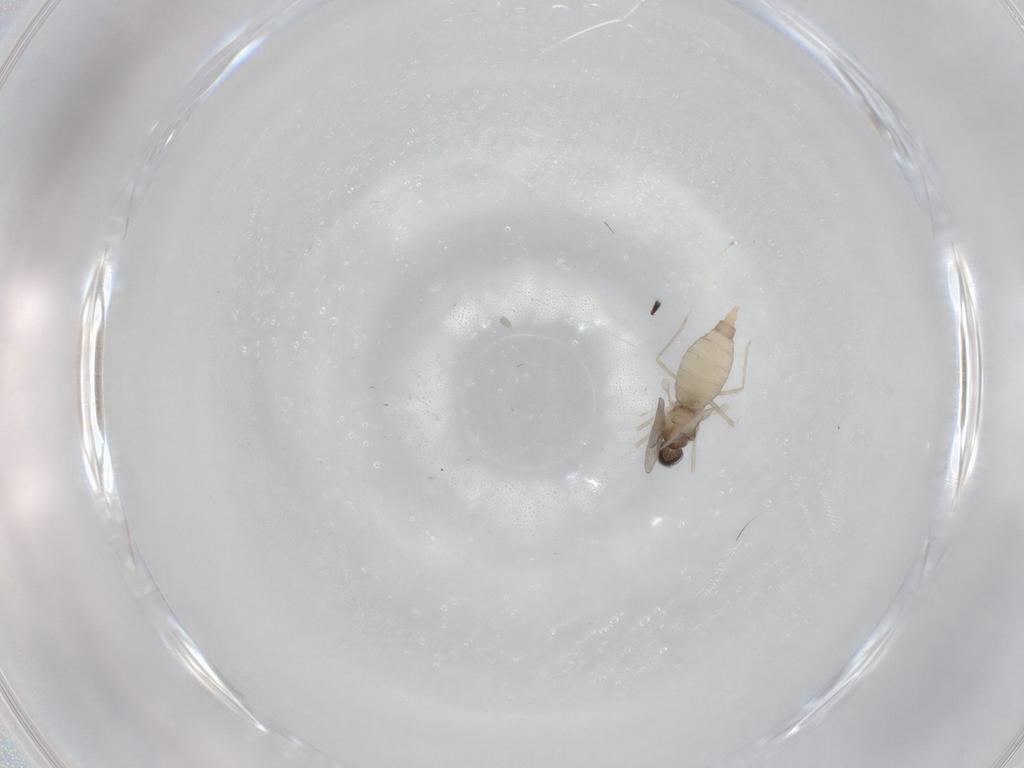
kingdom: Animalia
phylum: Arthropoda
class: Insecta
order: Diptera
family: Cecidomyiidae
